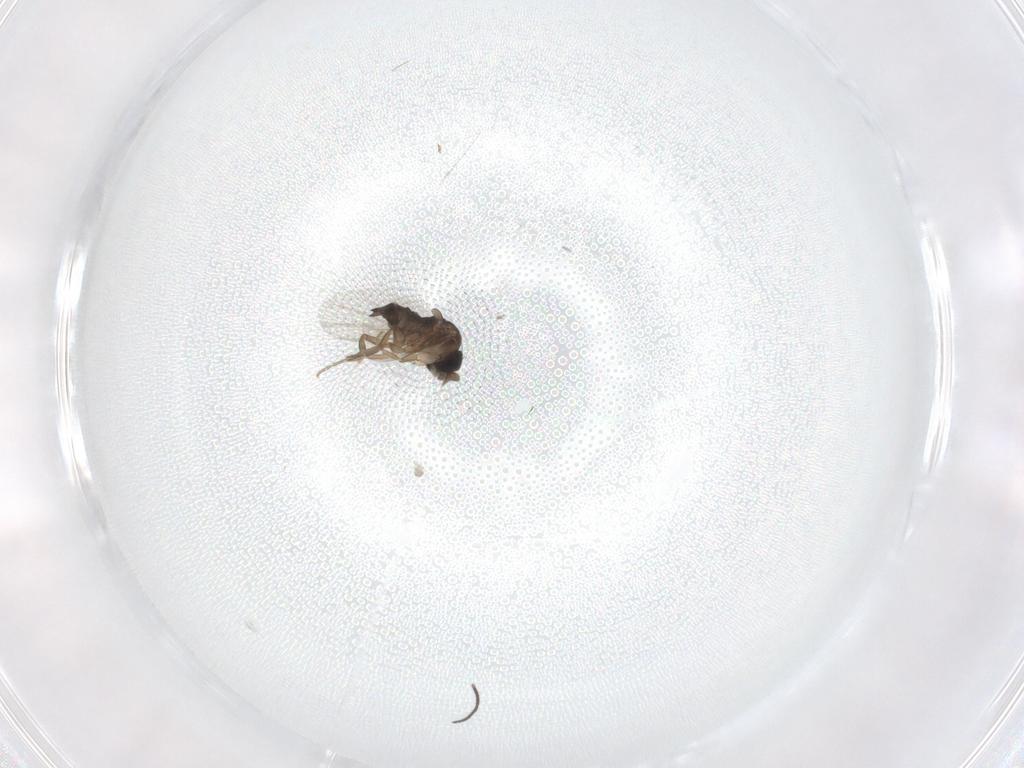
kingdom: Animalia
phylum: Arthropoda
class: Insecta
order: Diptera
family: Phoridae
